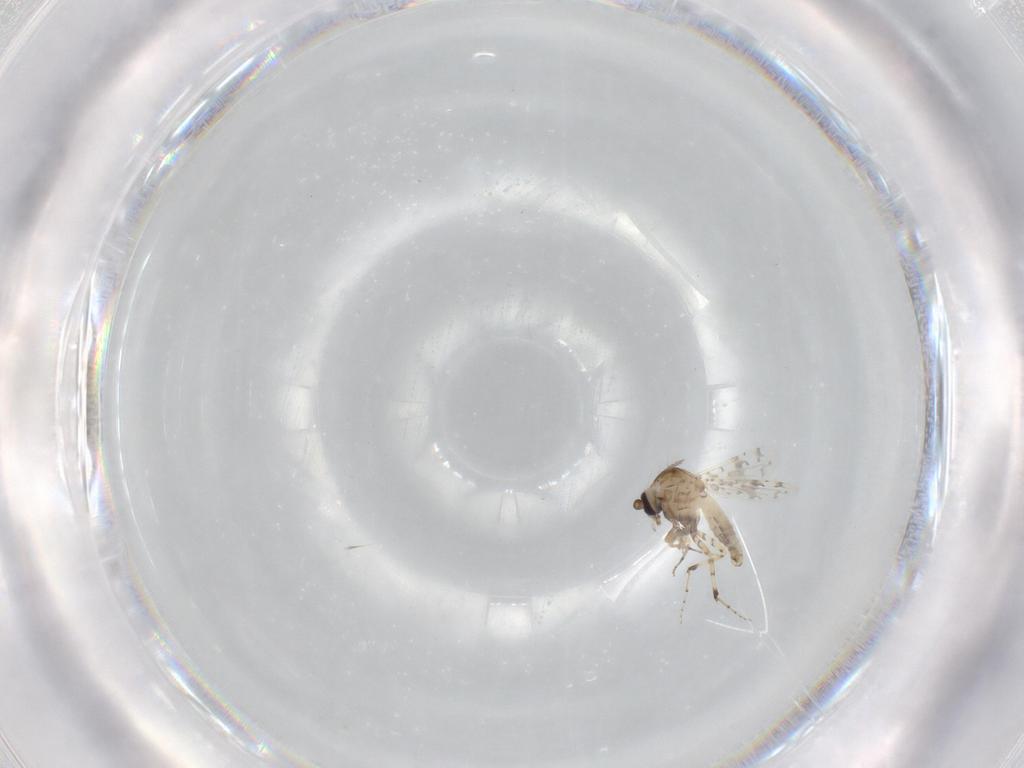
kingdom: Animalia
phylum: Arthropoda
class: Insecta
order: Diptera
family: Ceratopogonidae
